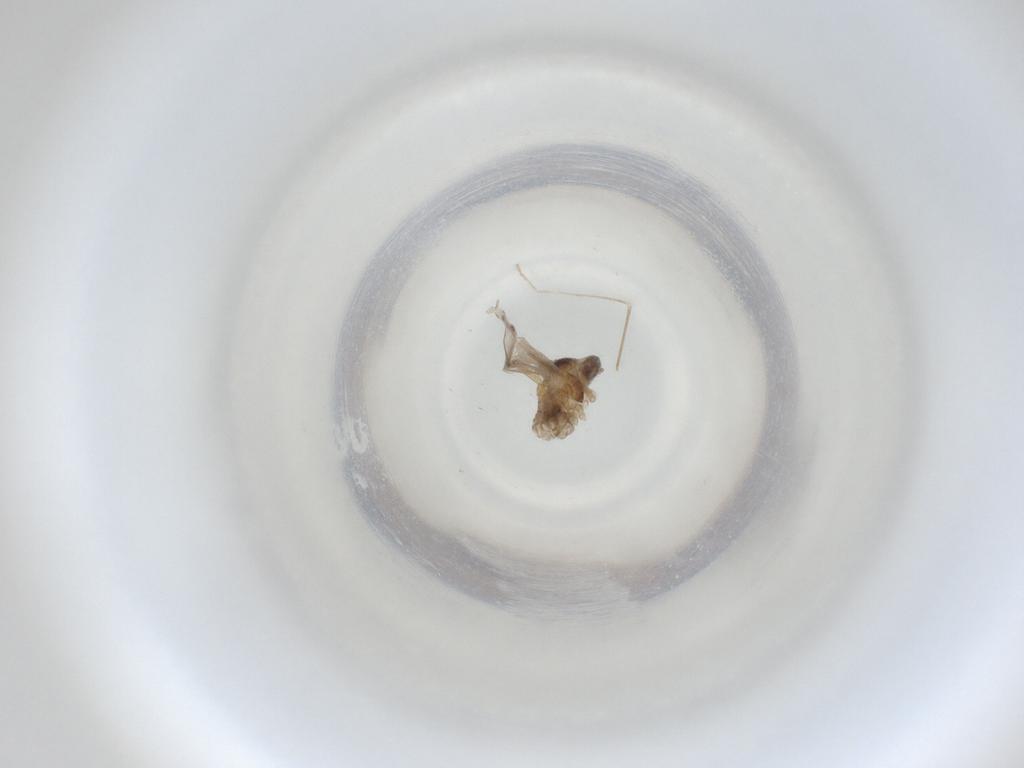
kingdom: Animalia
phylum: Arthropoda
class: Insecta
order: Diptera
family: Cecidomyiidae
